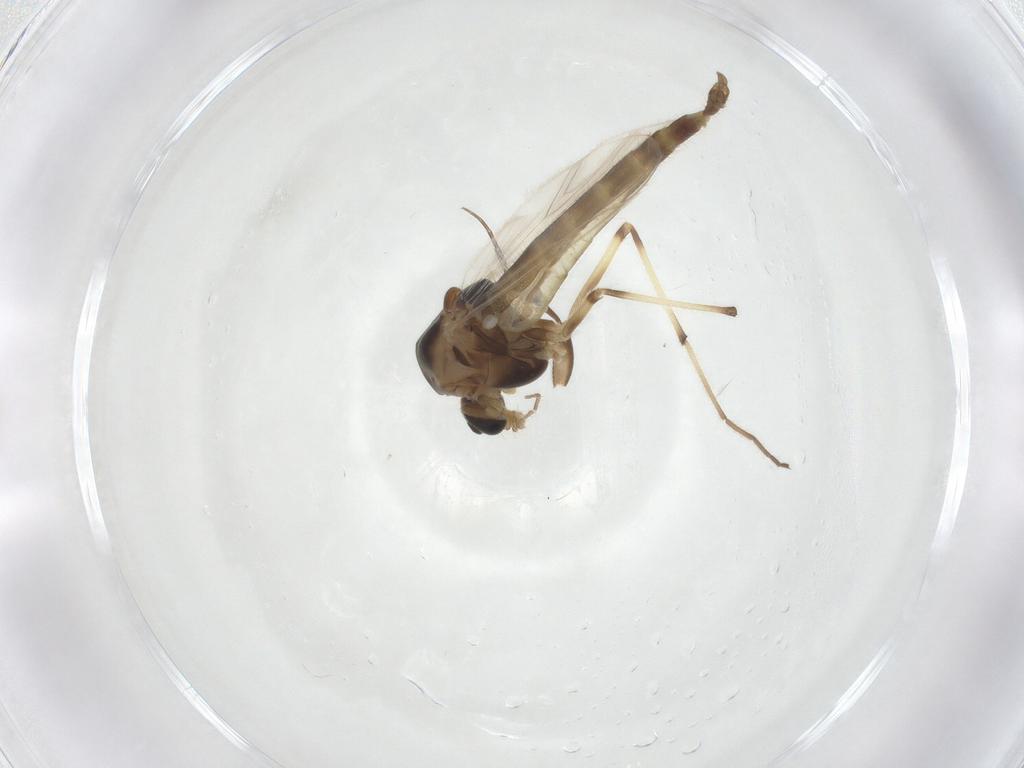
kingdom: Animalia
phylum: Arthropoda
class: Insecta
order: Diptera
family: Chironomidae
